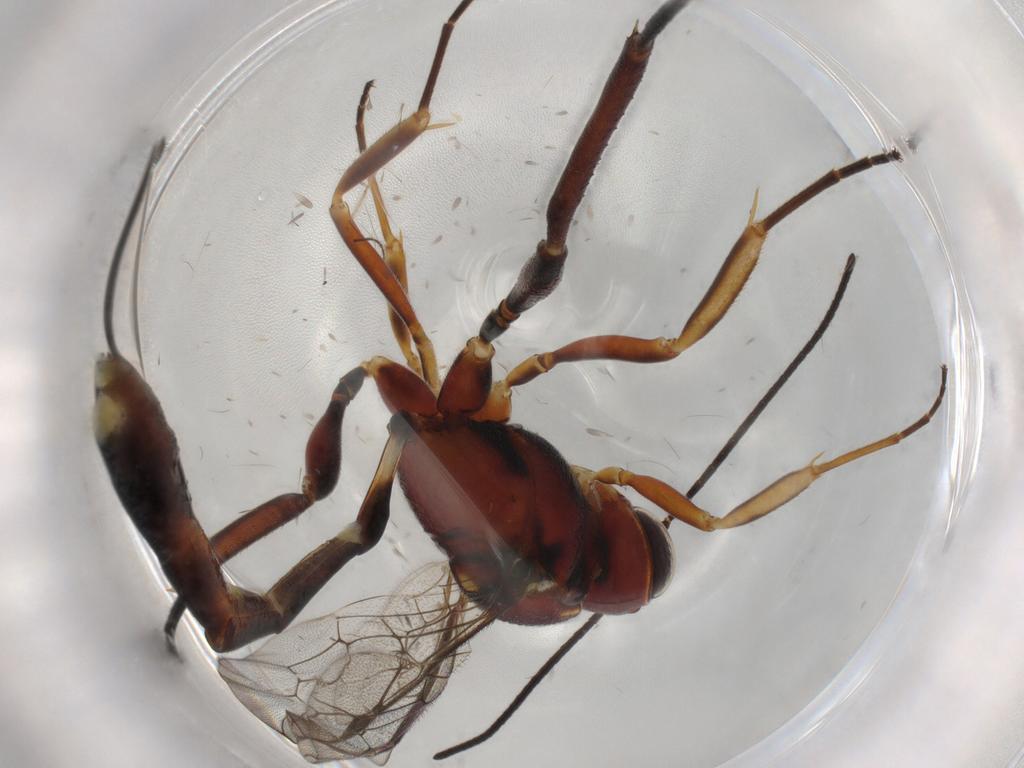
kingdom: Animalia
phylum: Arthropoda
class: Insecta
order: Hymenoptera
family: Ichneumonidae
